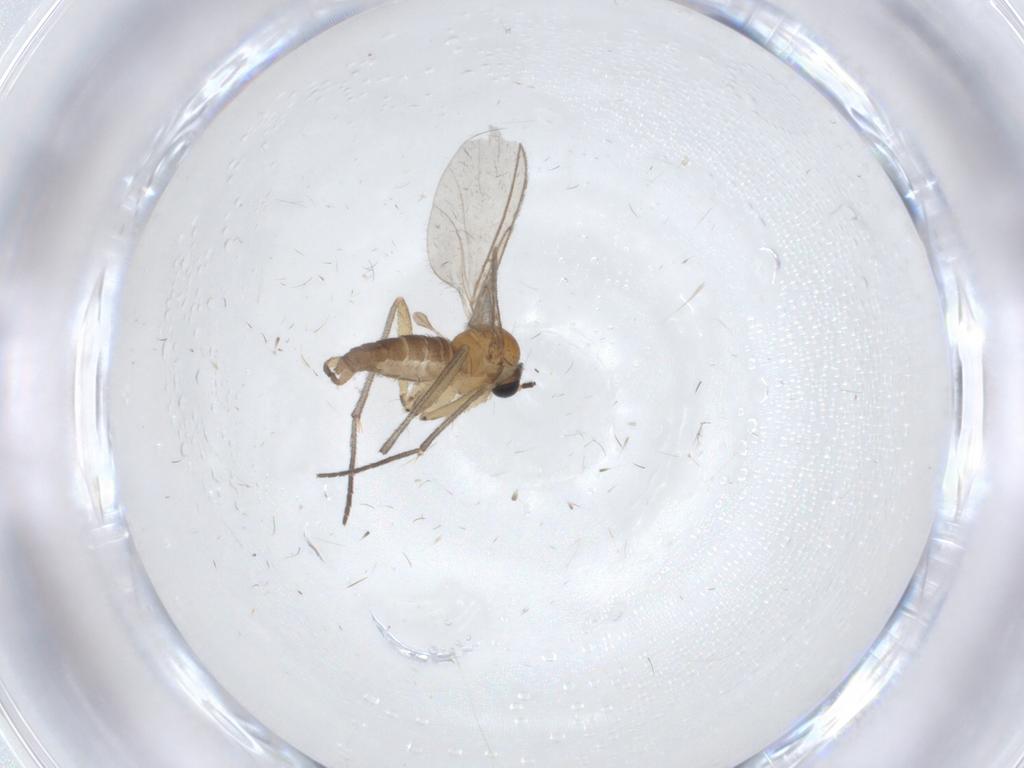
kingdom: Animalia
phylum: Arthropoda
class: Insecta
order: Diptera
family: Sciaridae
